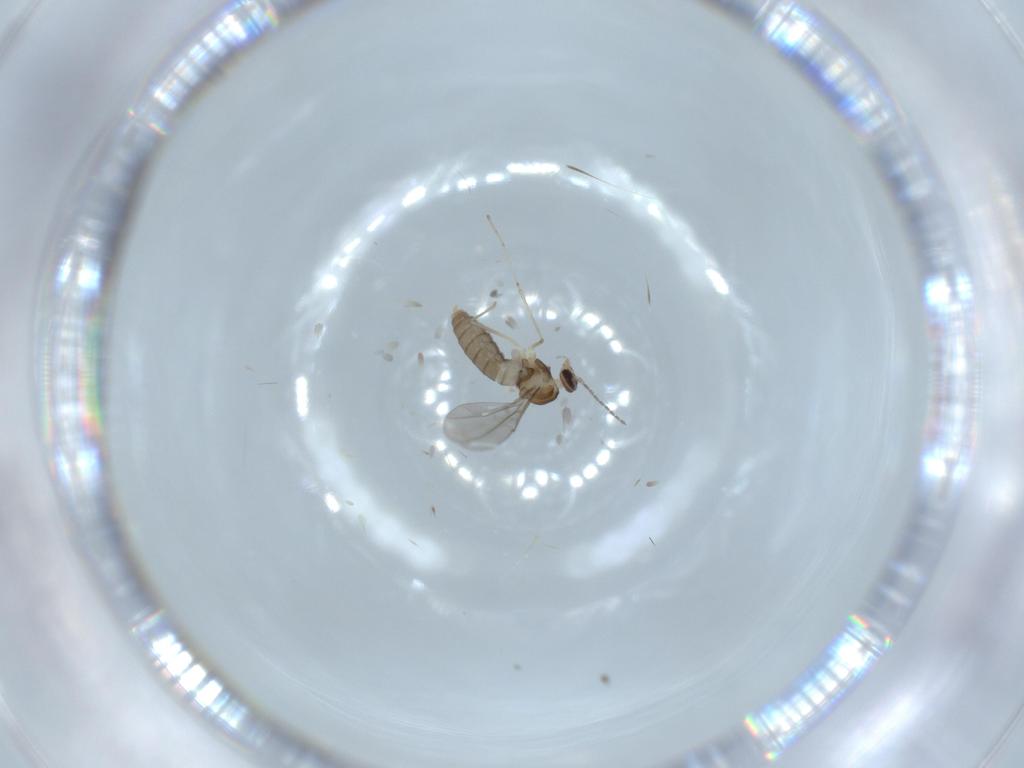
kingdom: Animalia
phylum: Arthropoda
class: Insecta
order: Diptera
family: Cecidomyiidae
